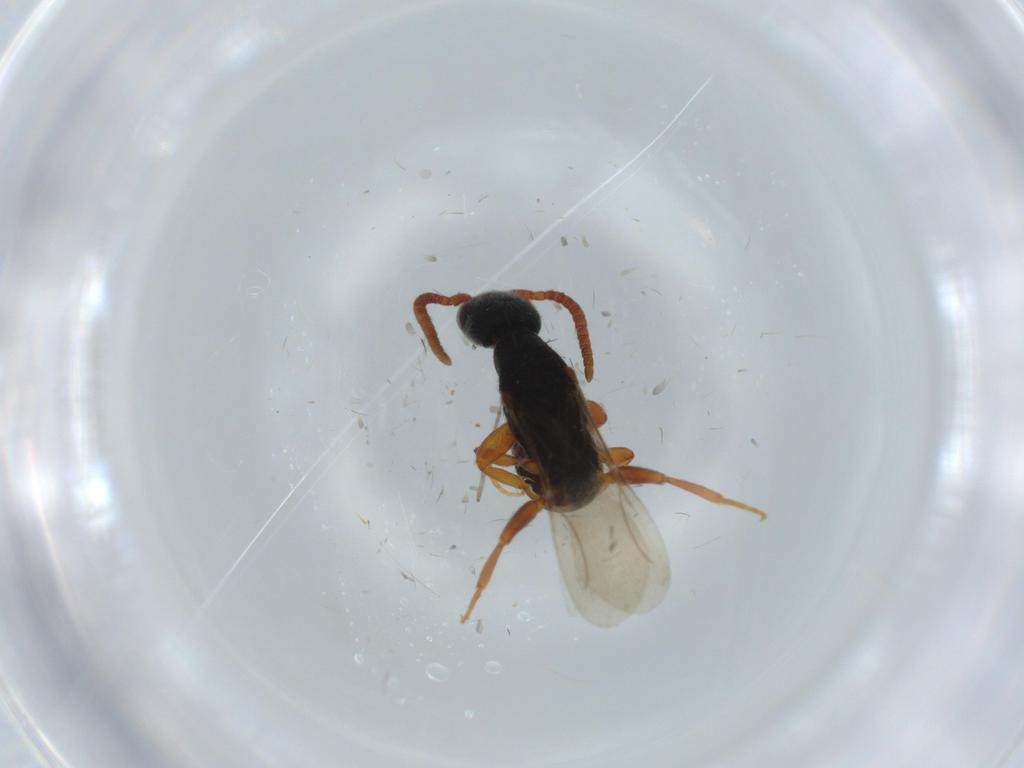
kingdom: Animalia
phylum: Arthropoda
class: Insecta
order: Hymenoptera
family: Bethylidae
